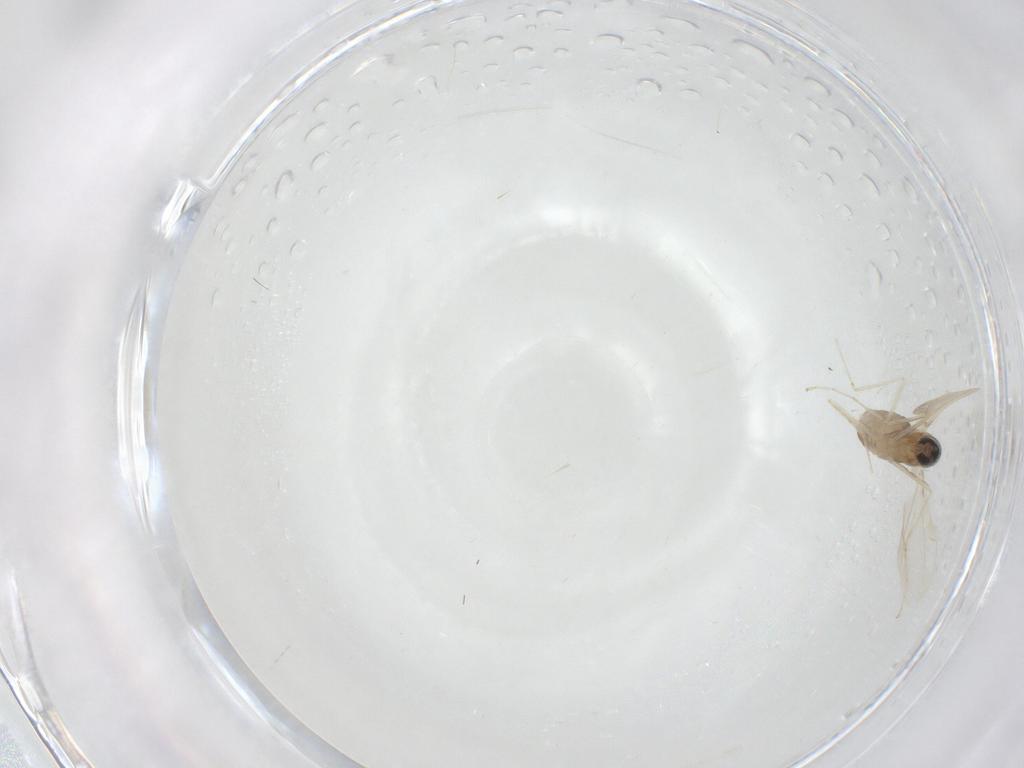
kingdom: Animalia
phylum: Arthropoda
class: Insecta
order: Diptera
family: Cecidomyiidae
